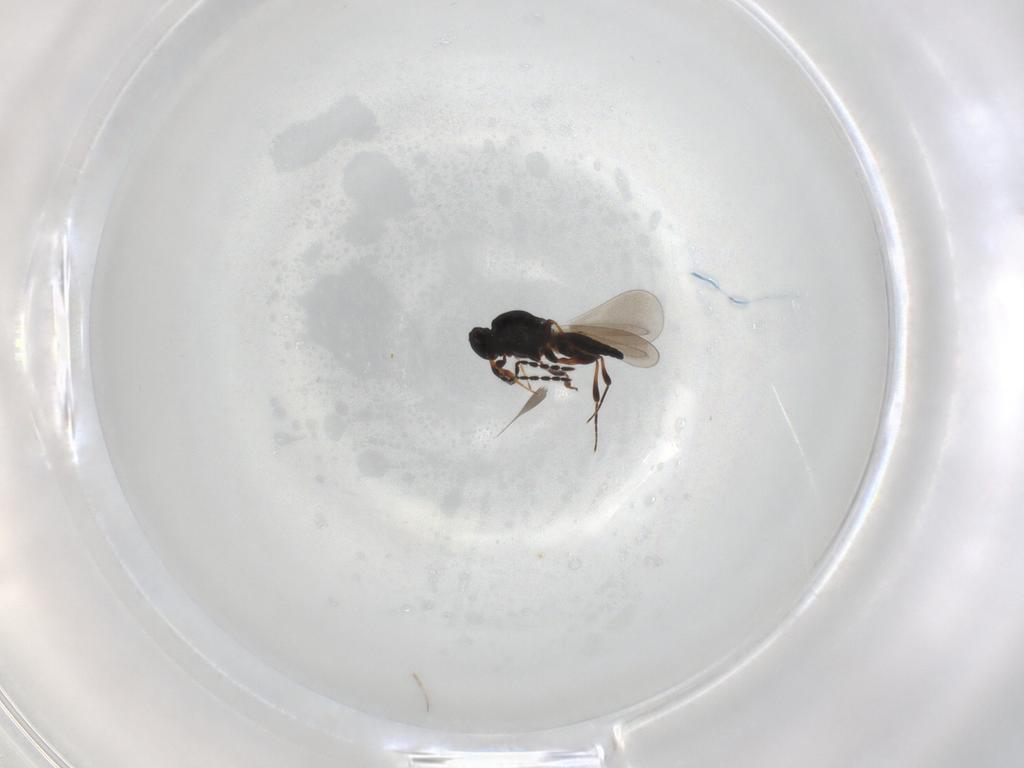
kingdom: Animalia
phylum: Arthropoda
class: Insecta
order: Hymenoptera
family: Platygastridae
